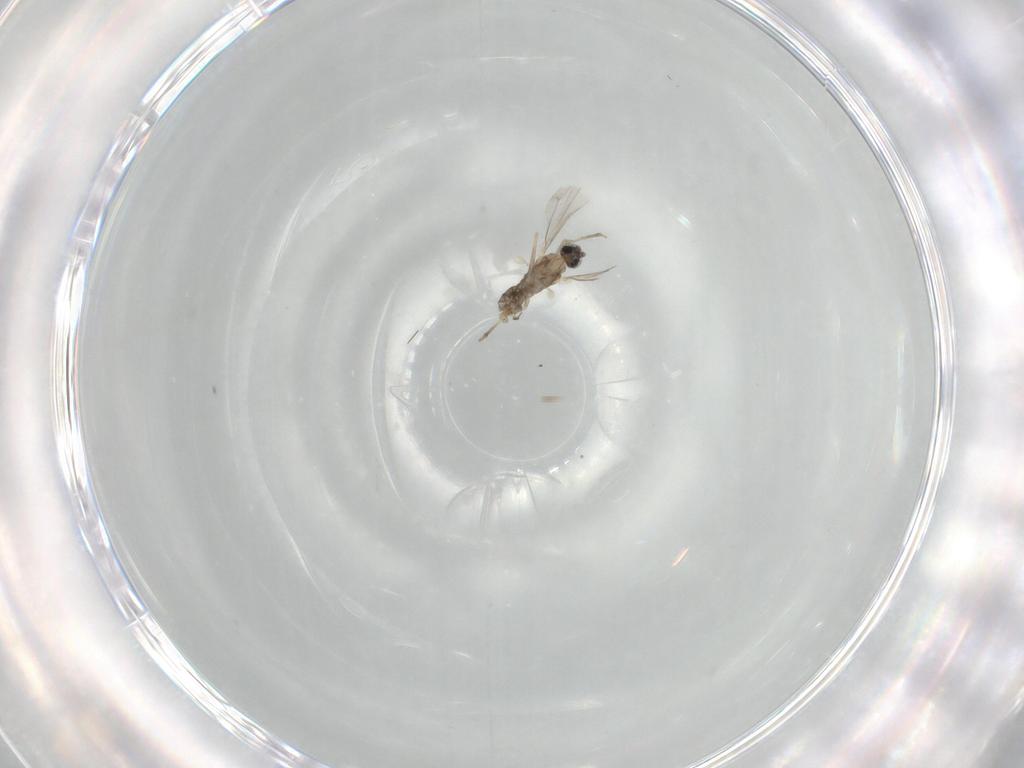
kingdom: Animalia
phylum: Arthropoda
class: Insecta
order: Diptera
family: Cecidomyiidae
